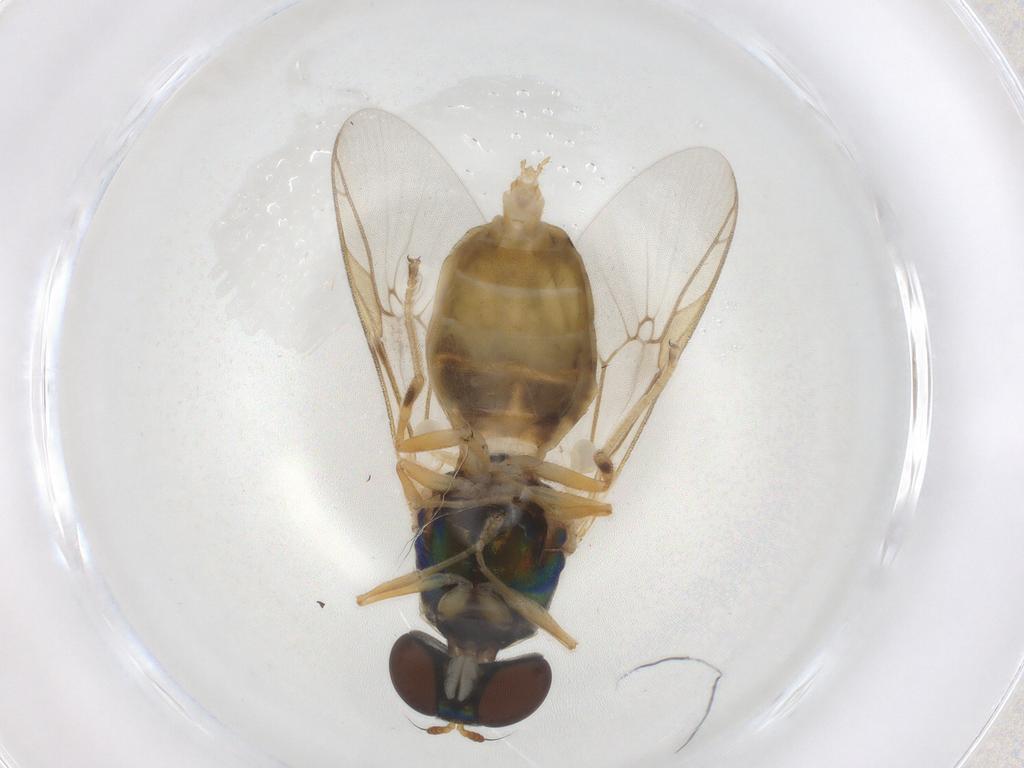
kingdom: Animalia
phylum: Arthropoda
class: Insecta
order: Diptera
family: Psychodidae
